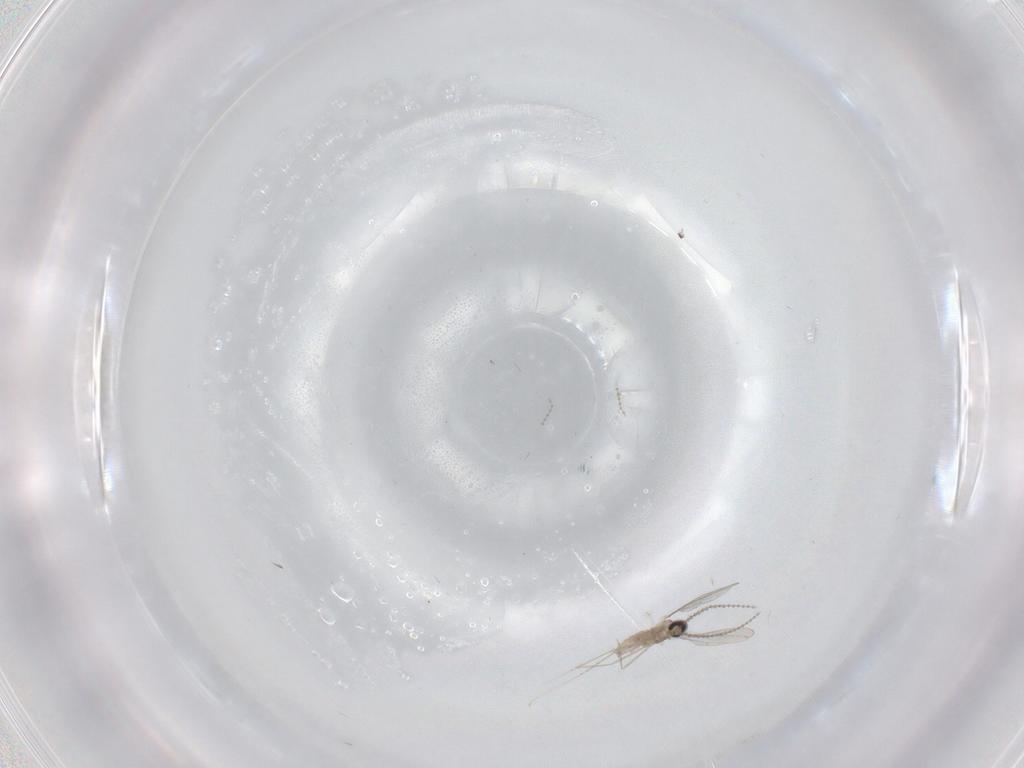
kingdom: Animalia
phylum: Arthropoda
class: Insecta
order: Diptera
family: Cecidomyiidae
